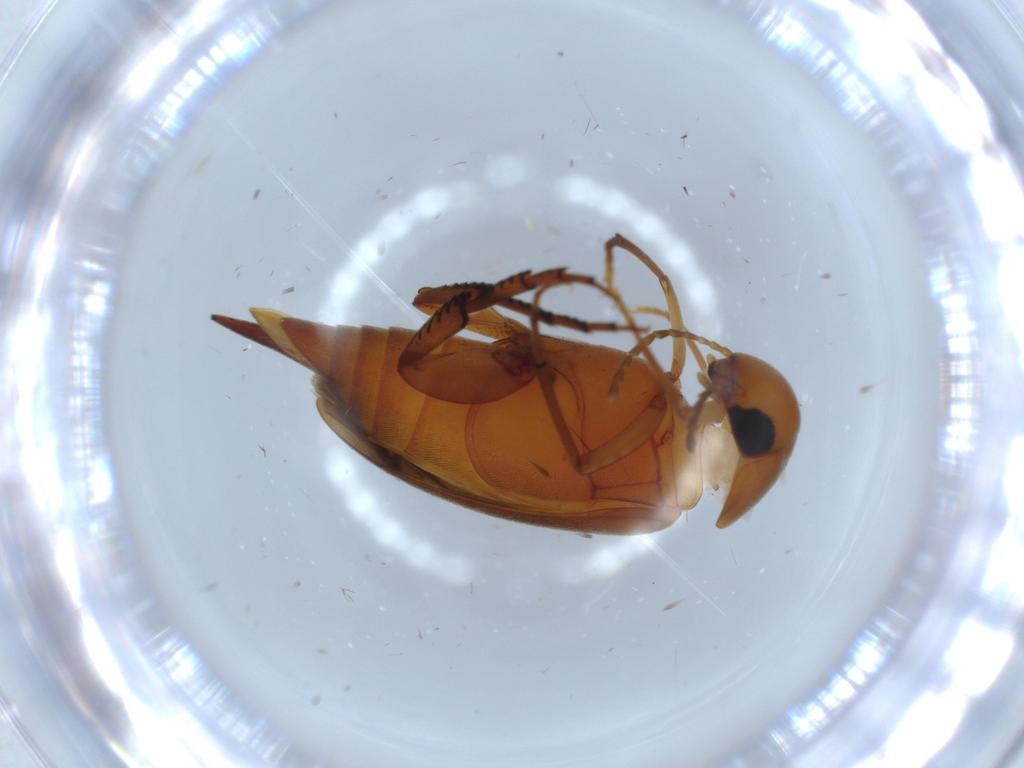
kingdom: Animalia
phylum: Arthropoda
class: Insecta
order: Coleoptera
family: Mordellidae
